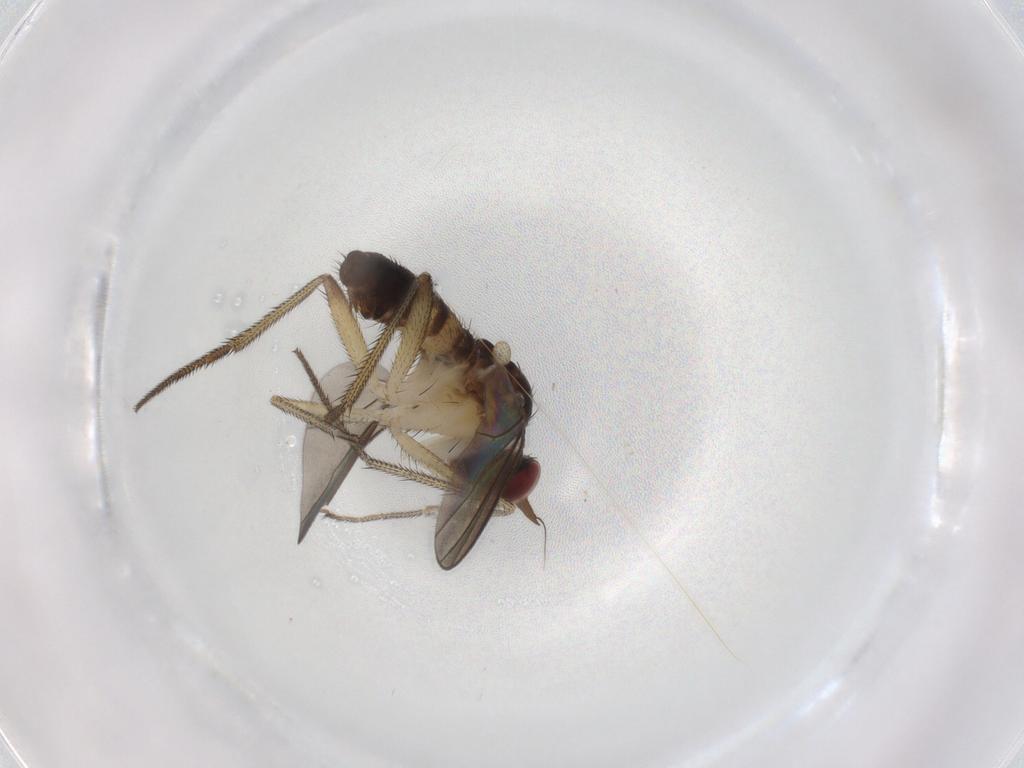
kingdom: Animalia
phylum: Arthropoda
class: Insecta
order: Diptera
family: Dolichopodidae
